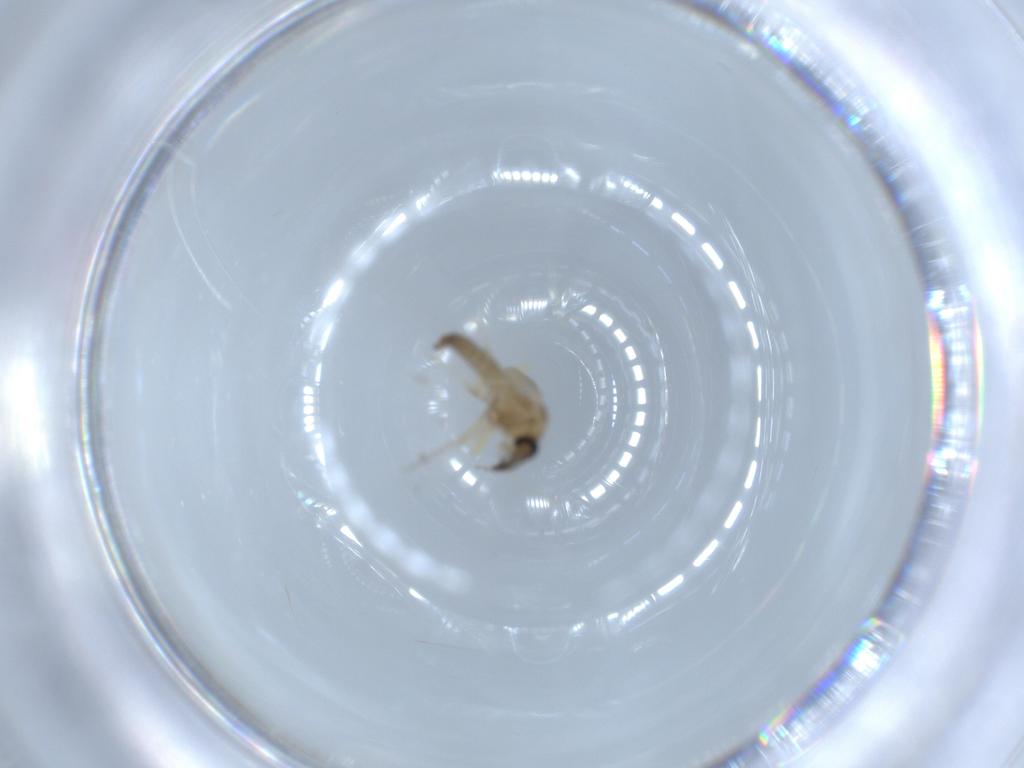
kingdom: Animalia
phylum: Arthropoda
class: Insecta
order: Diptera
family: Ceratopogonidae
